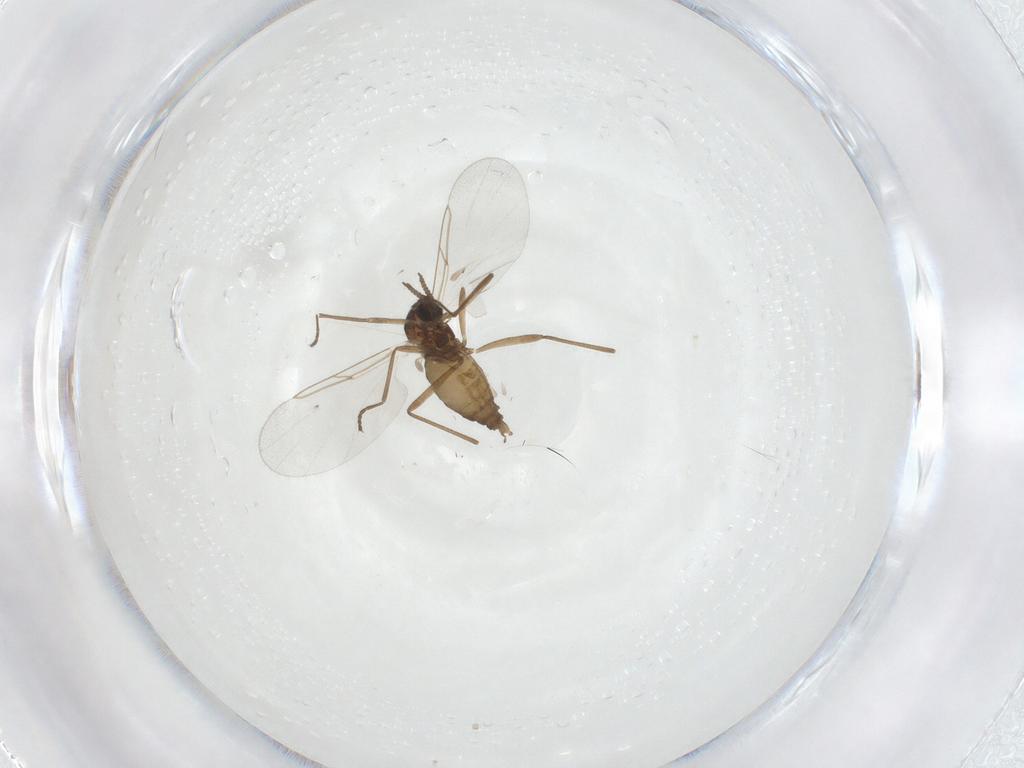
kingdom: Animalia
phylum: Arthropoda
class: Insecta
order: Diptera
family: Cecidomyiidae
